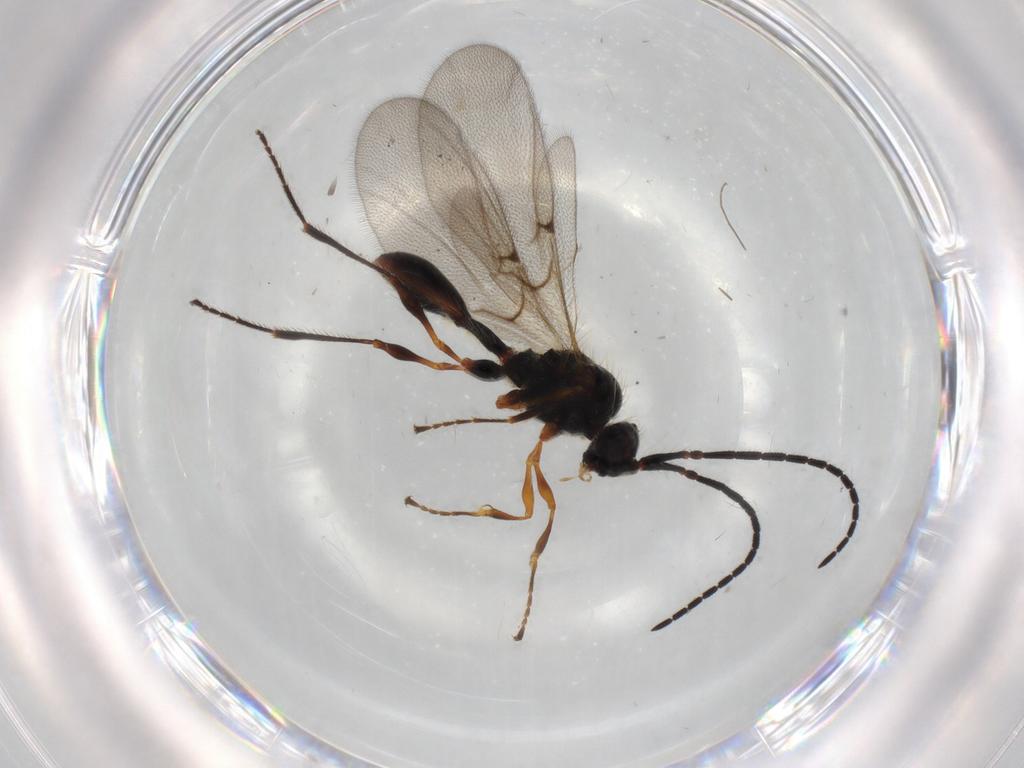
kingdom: Animalia
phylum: Arthropoda
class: Insecta
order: Hymenoptera
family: Diapriidae
